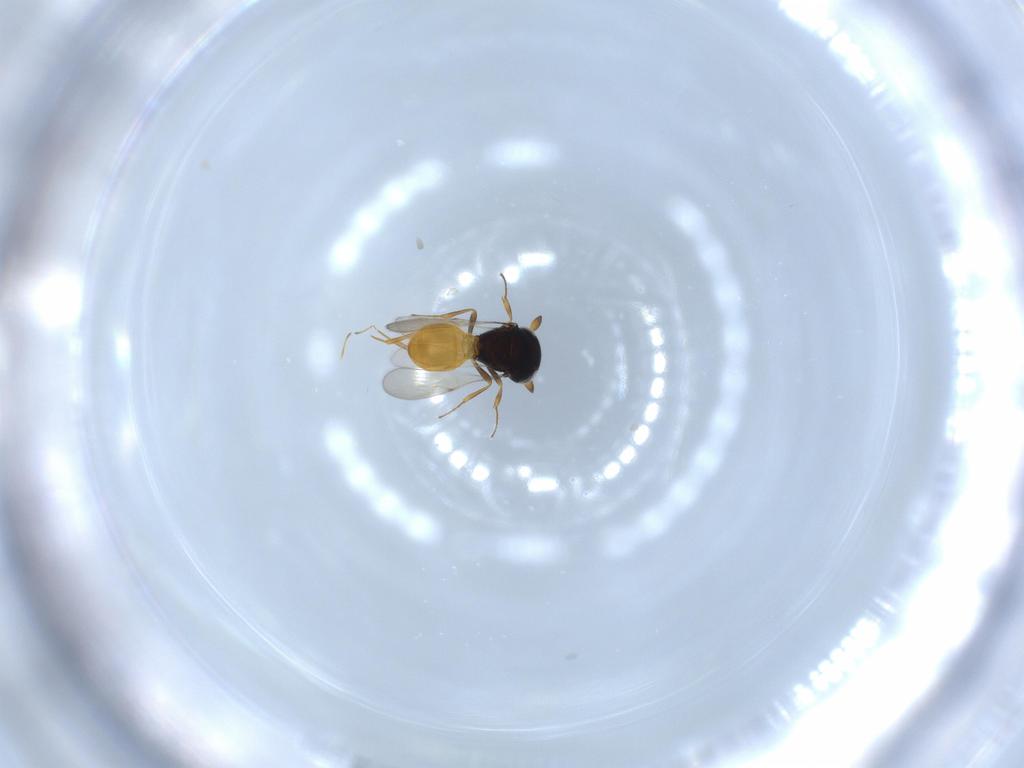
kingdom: Animalia
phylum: Arthropoda
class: Insecta
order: Hymenoptera
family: Scelionidae
